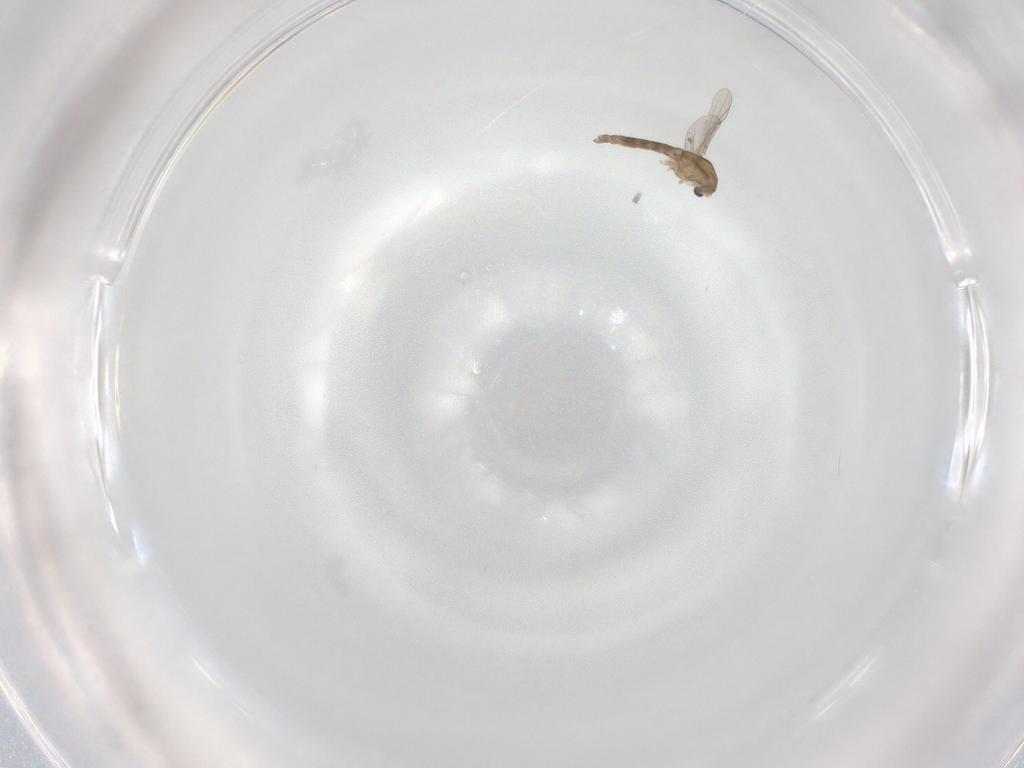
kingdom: Animalia
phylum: Arthropoda
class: Insecta
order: Diptera
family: Chironomidae
